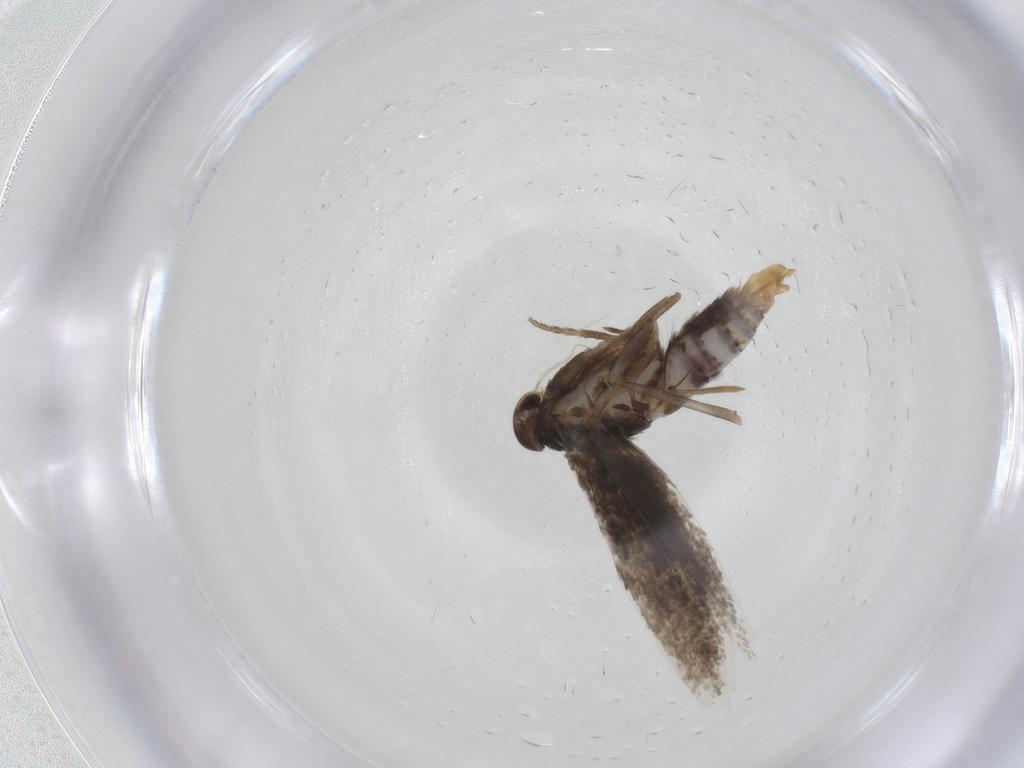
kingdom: Animalia
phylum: Arthropoda
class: Insecta
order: Lepidoptera
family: Elachistidae
